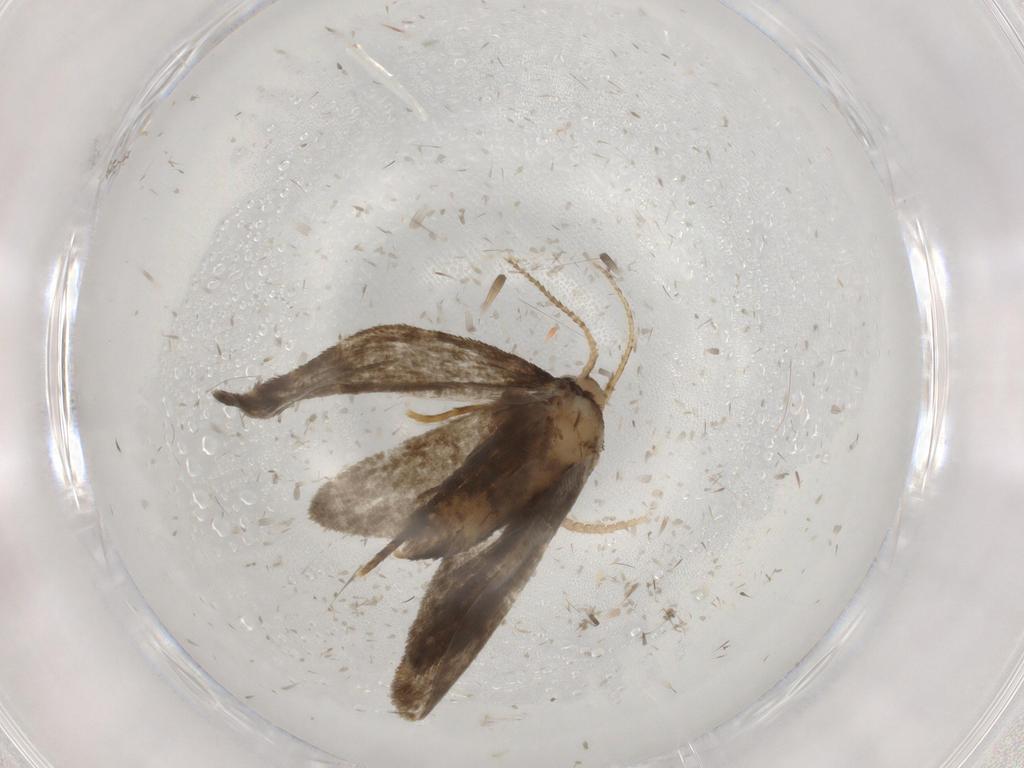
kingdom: Animalia
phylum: Arthropoda
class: Insecta
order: Lepidoptera
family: Psychidae
